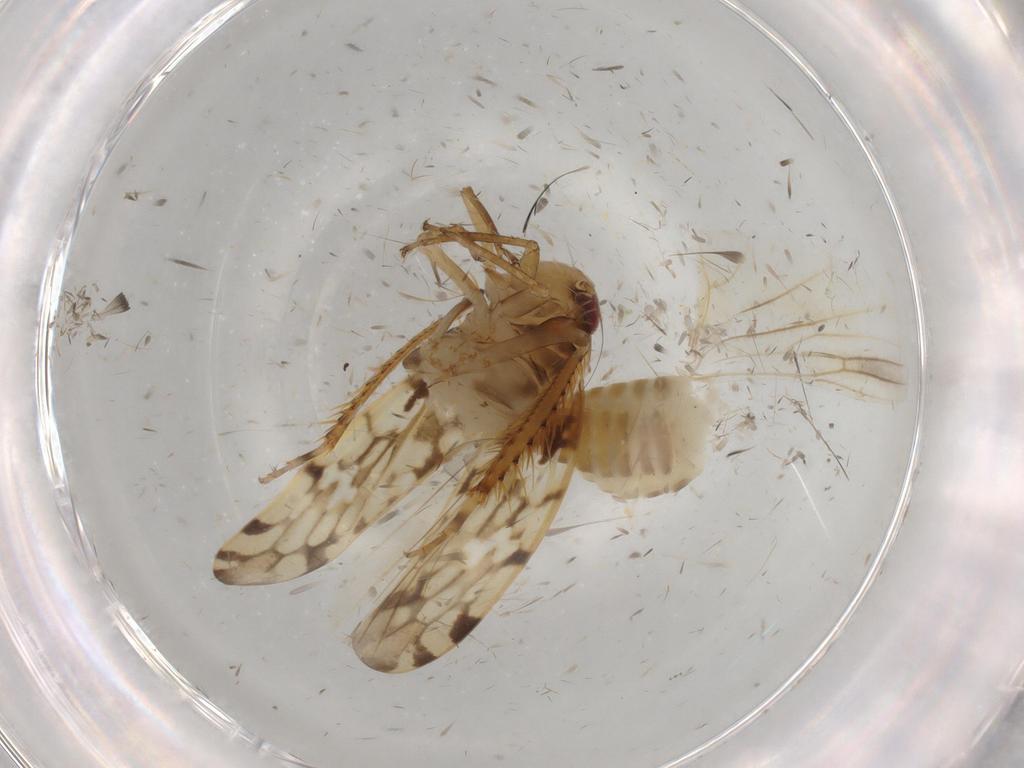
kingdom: Animalia
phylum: Arthropoda
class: Insecta
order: Hemiptera
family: Cicadellidae
